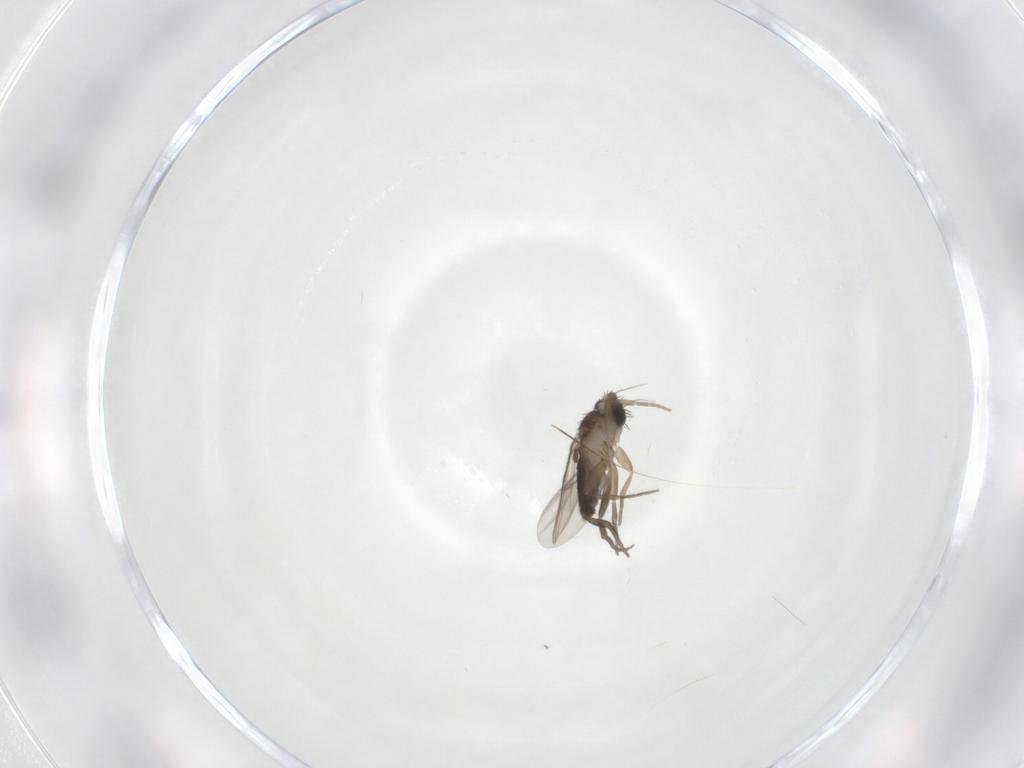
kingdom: Animalia
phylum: Arthropoda
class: Insecta
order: Diptera
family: Phoridae
